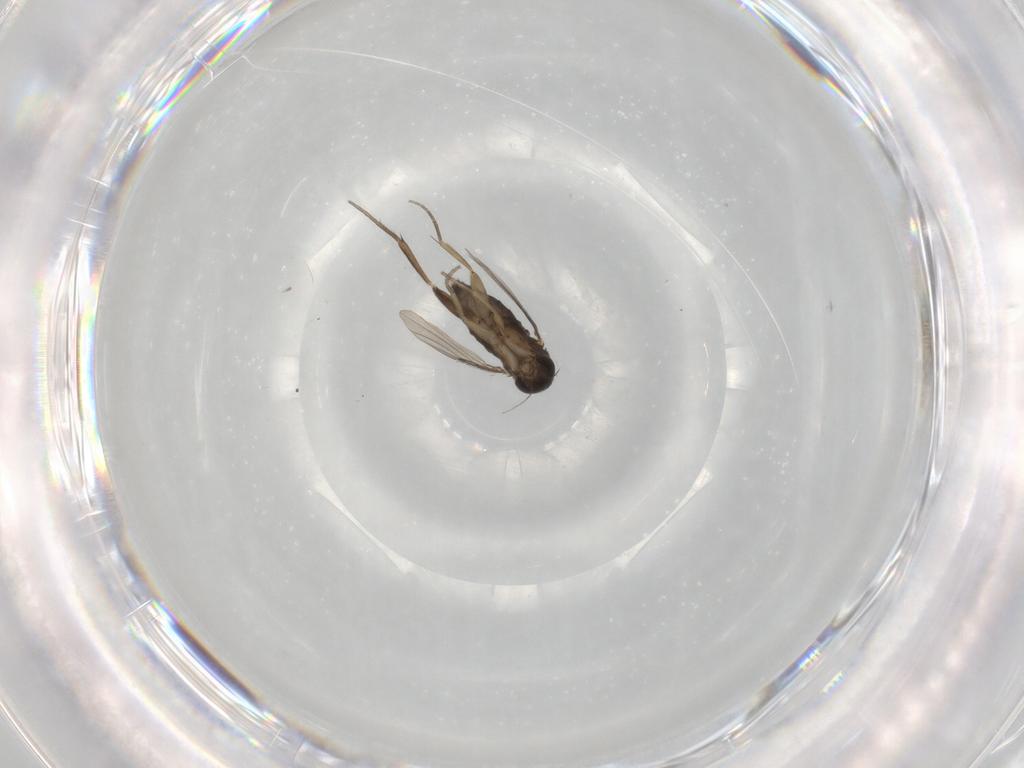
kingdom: Animalia
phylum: Arthropoda
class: Insecta
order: Diptera
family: Phoridae
